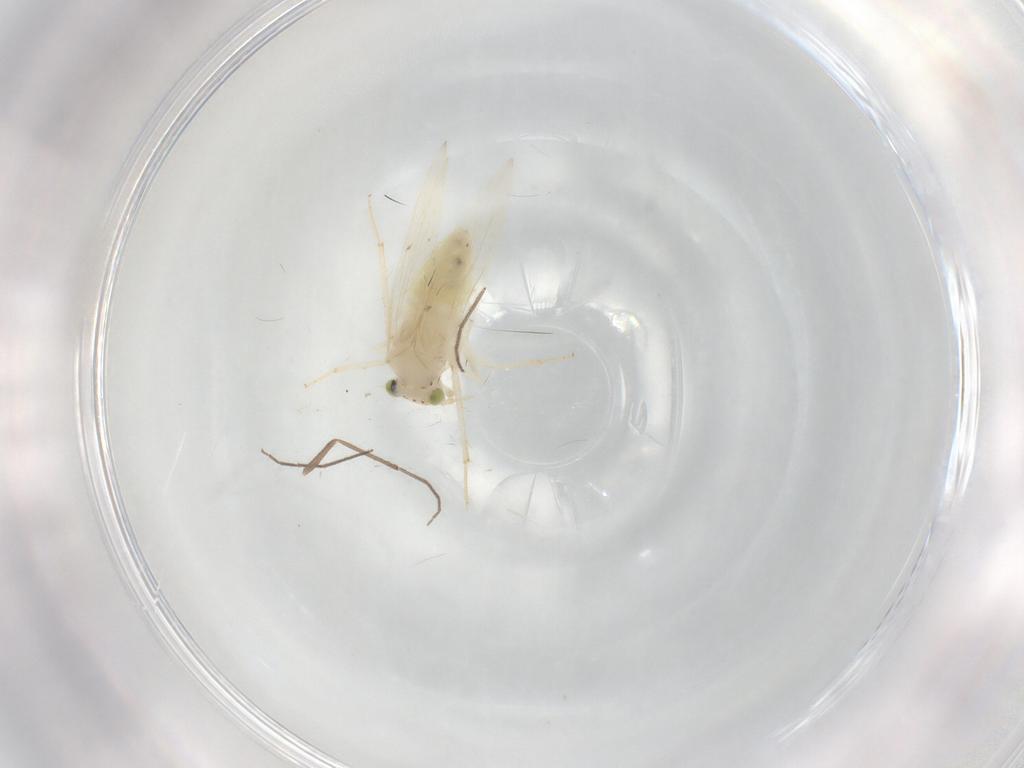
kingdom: Animalia
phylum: Arthropoda
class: Insecta
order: Psocodea
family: Lepidopsocidae
